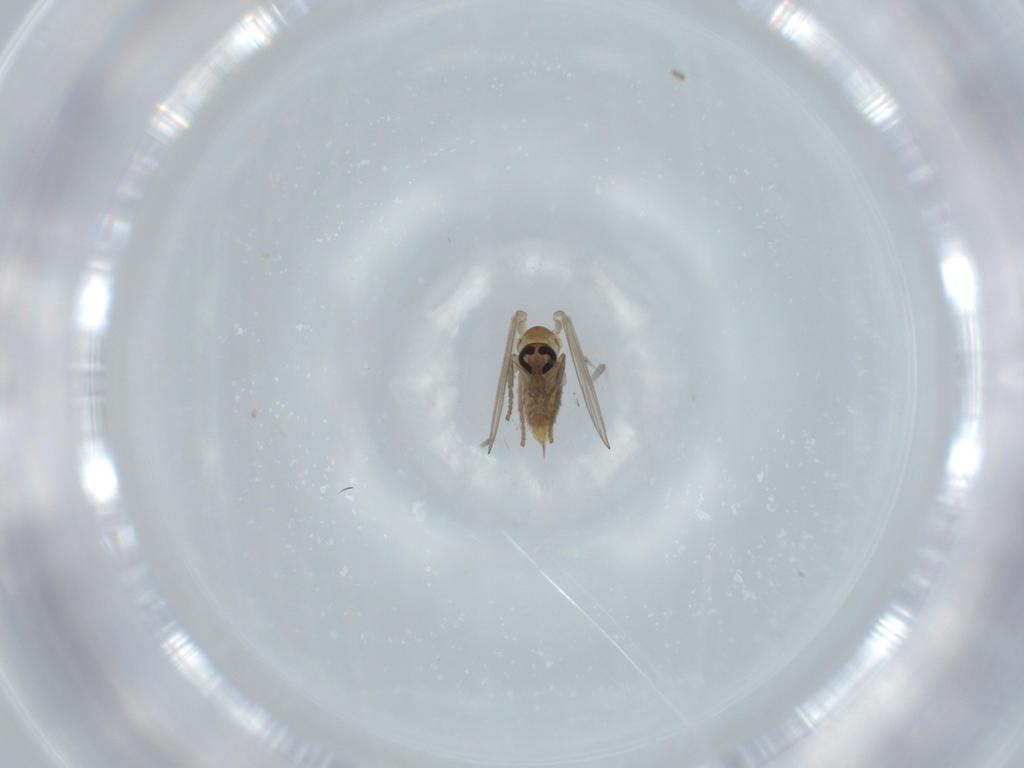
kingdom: Animalia
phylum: Arthropoda
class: Insecta
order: Diptera
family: Psychodidae
